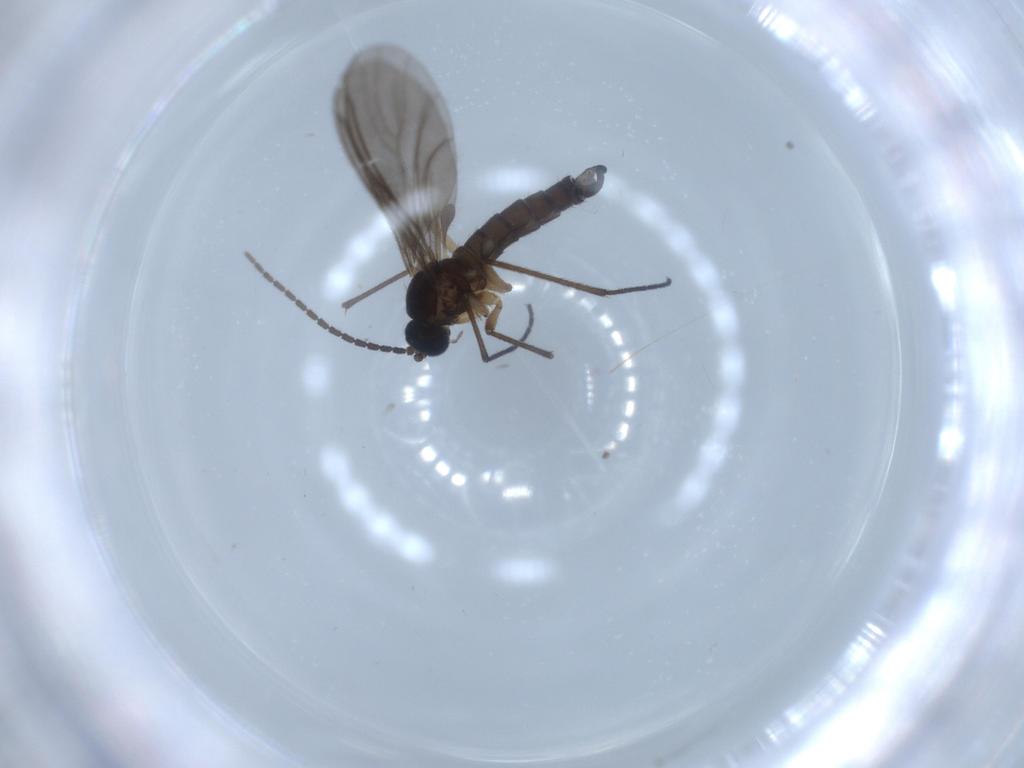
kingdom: Animalia
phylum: Arthropoda
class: Insecta
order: Diptera
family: Sciaridae
